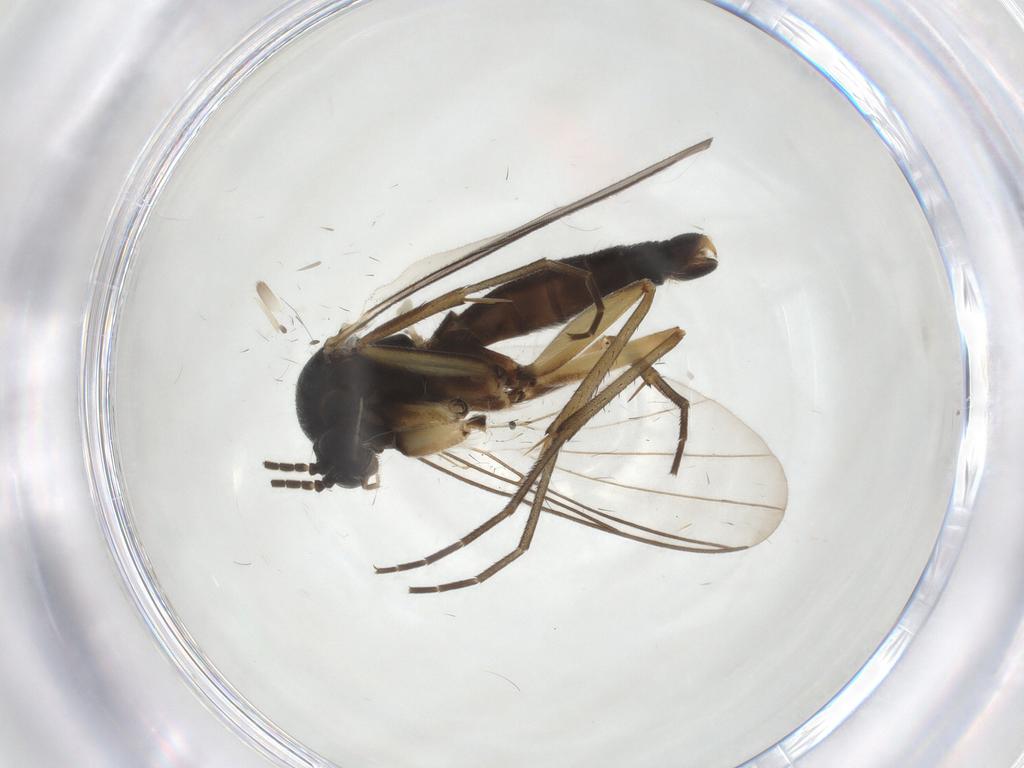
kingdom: Animalia
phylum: Arthropoda
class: Insecta
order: Diptera
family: Mycetophilidae
